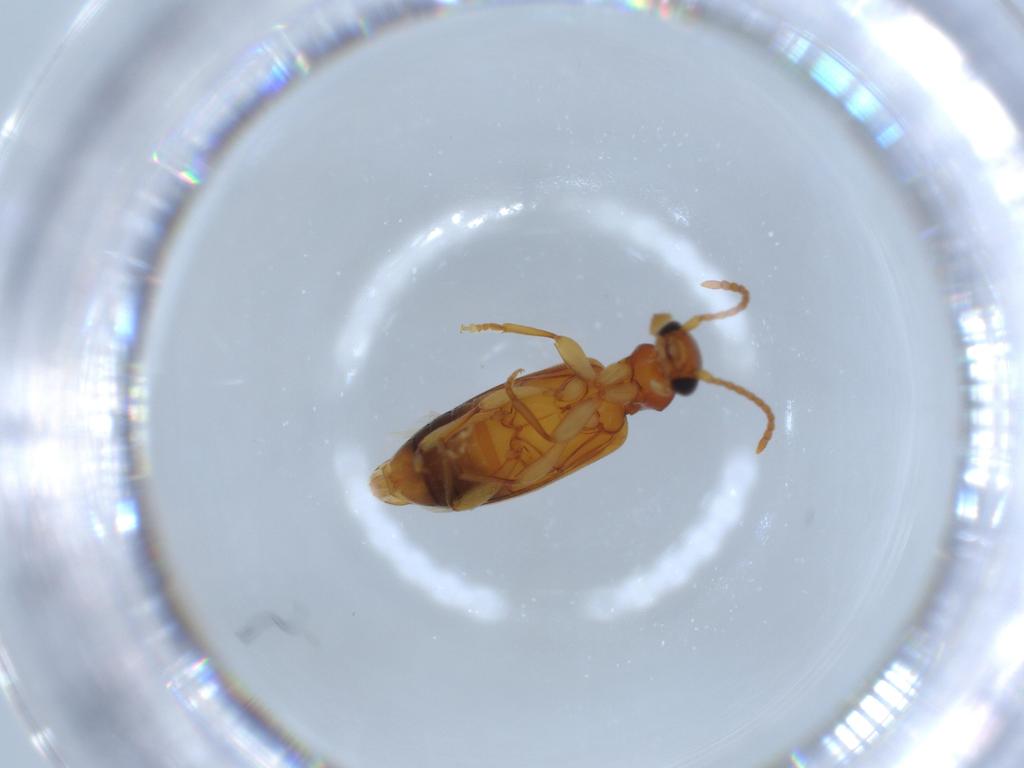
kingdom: Animalia
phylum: Arthropoda
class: Insecta
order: Coleoptera
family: Anthicidae
